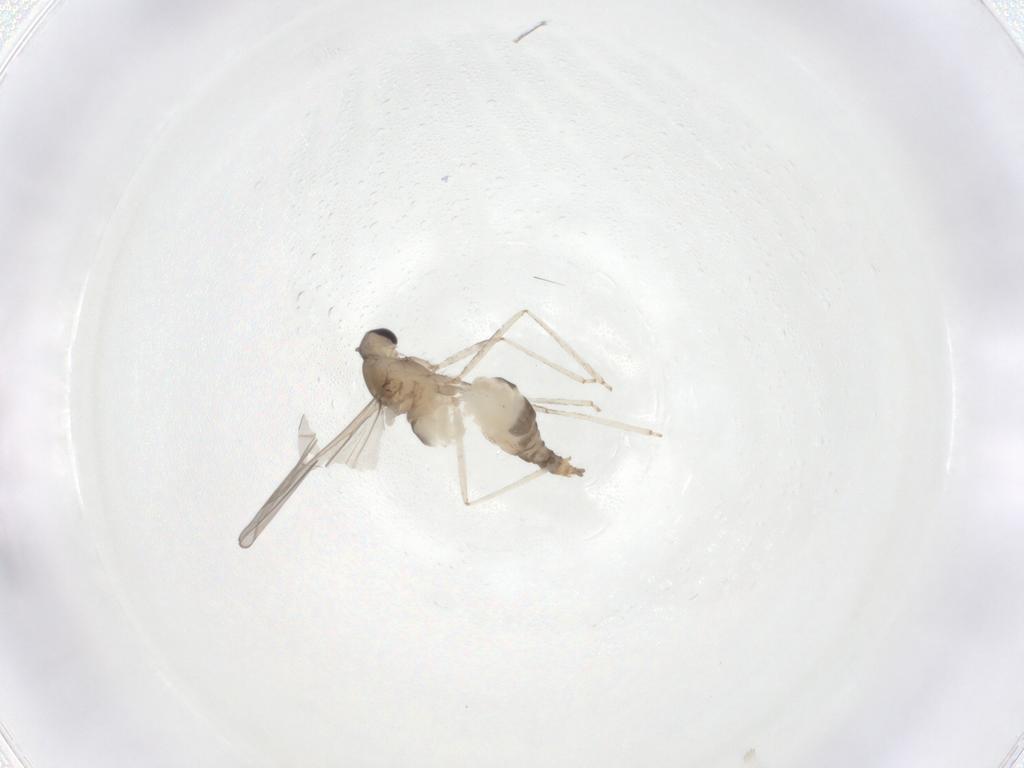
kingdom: Animalia
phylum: Arthropoda
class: Insecta
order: Diptera
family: Cecidomyiidae
